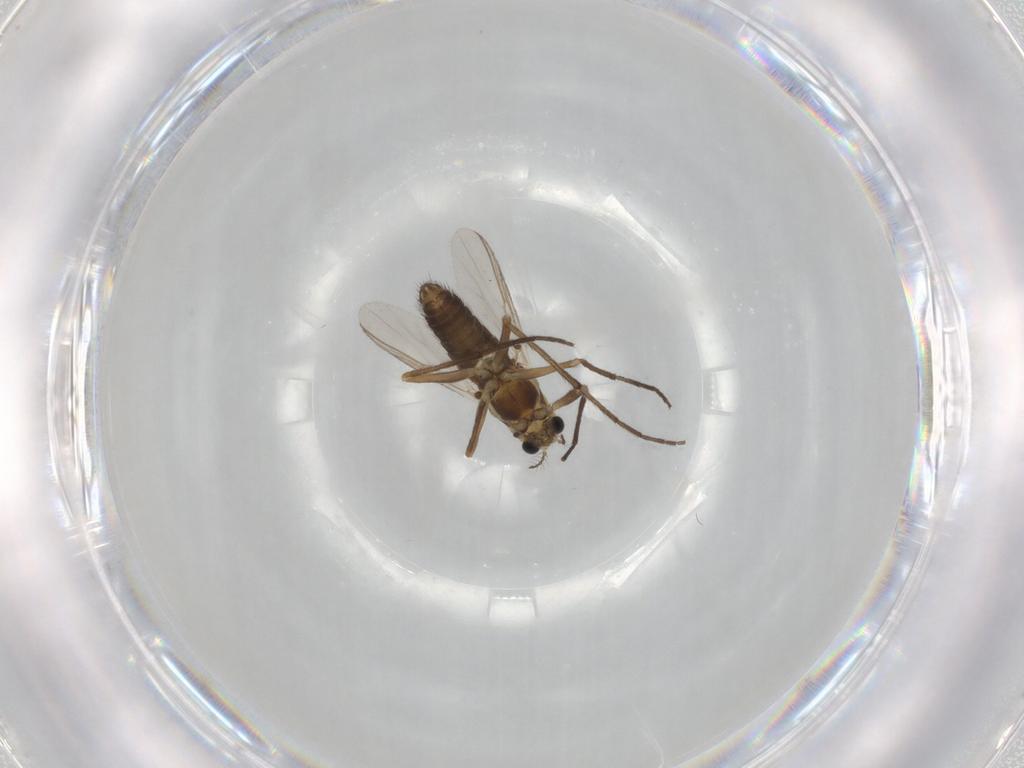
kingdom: Animalia
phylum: Arthropoda
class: Insecta
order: Diptera
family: Chironomidae
